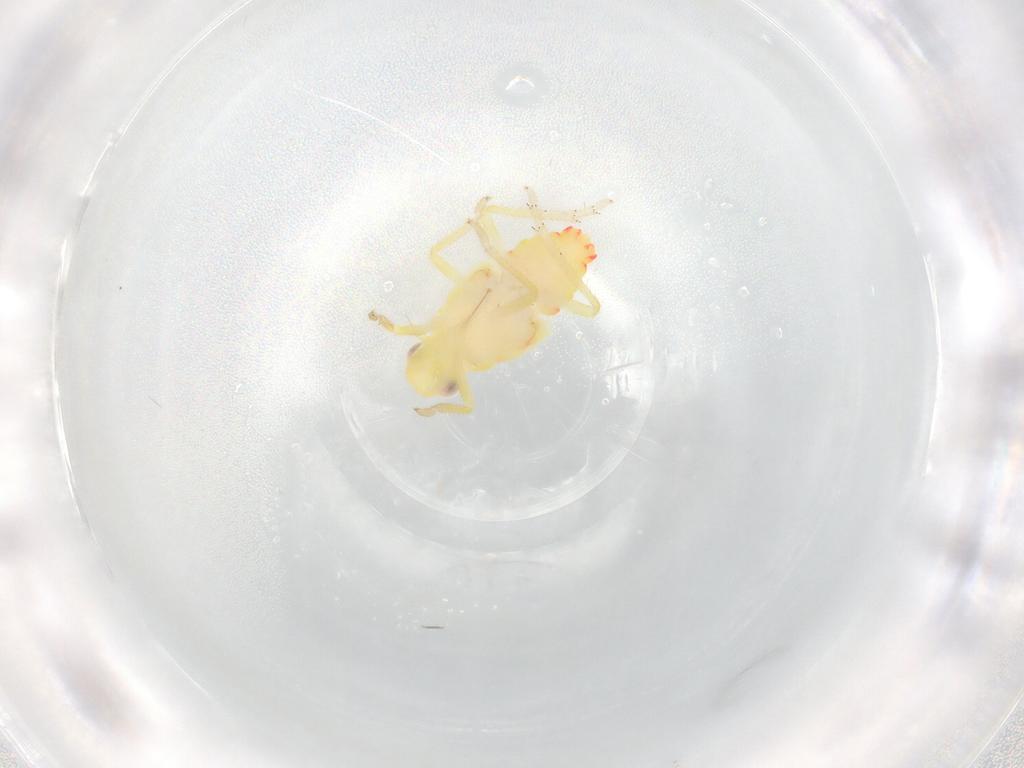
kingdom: Animalia
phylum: Arthropoda
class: Insecta
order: Hemiptera
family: Tropiduchidae
